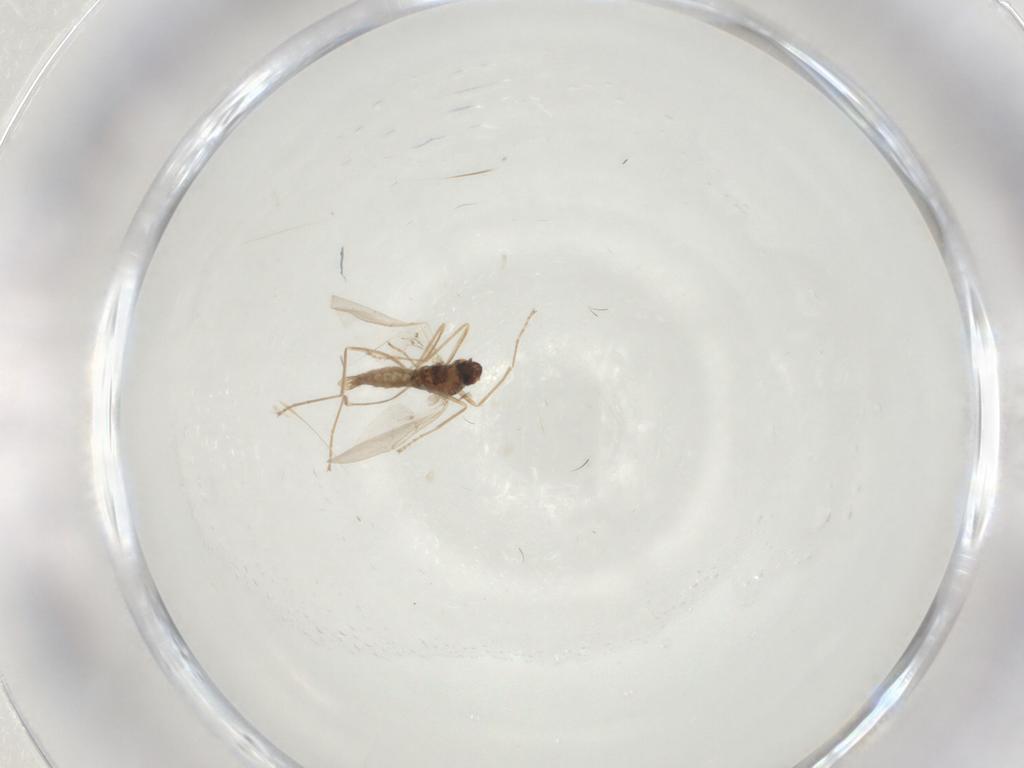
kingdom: Animalia
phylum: Arthropoda
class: Insecta
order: Diptera
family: Cecidomyiidae
